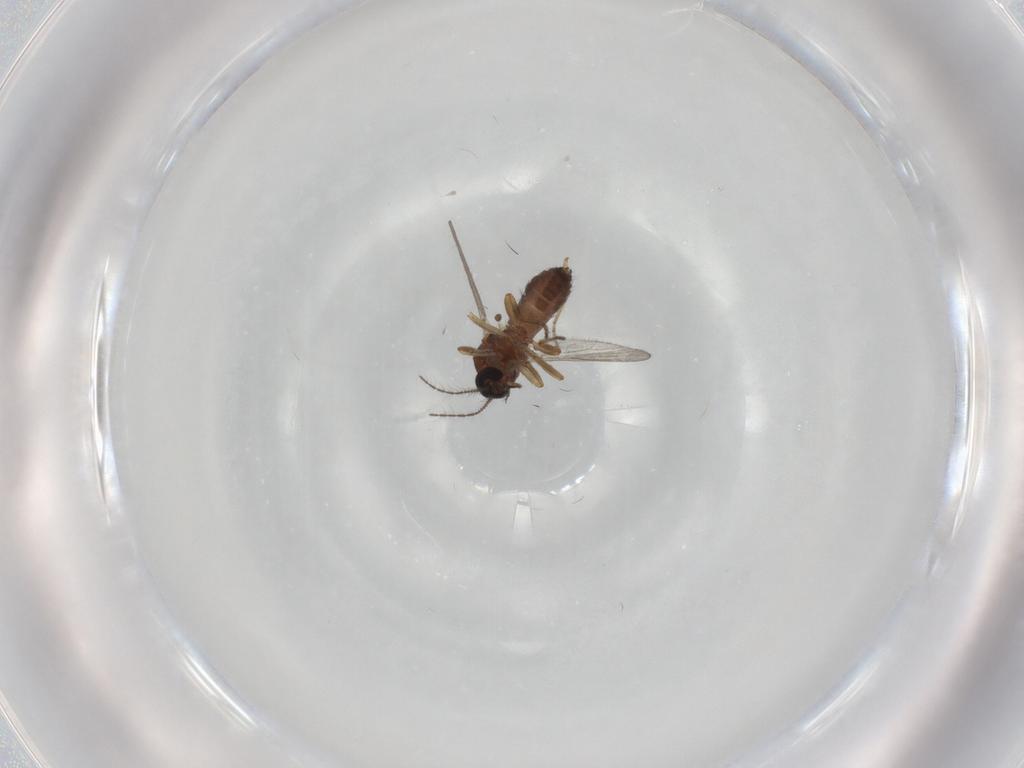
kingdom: Animalia
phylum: Arthropoda
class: Insecta
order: Diptera
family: Ceratopogonidae
